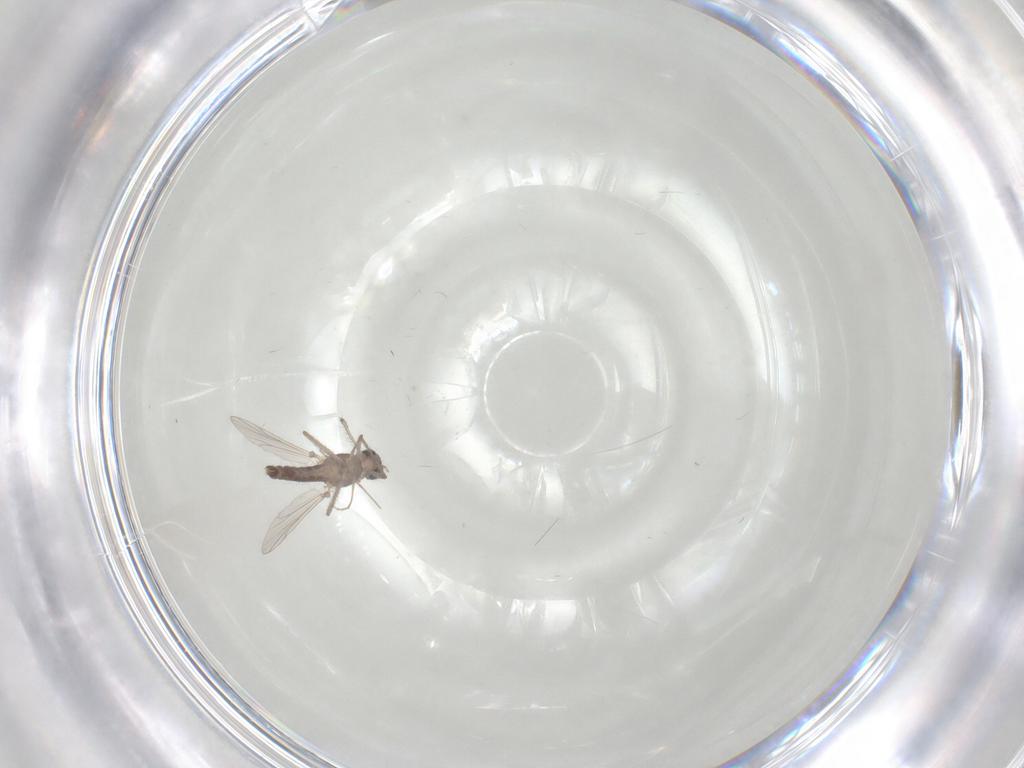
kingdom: Animalia
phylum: Arthropoda
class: Insecta
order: Diptera
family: Chironomidae
